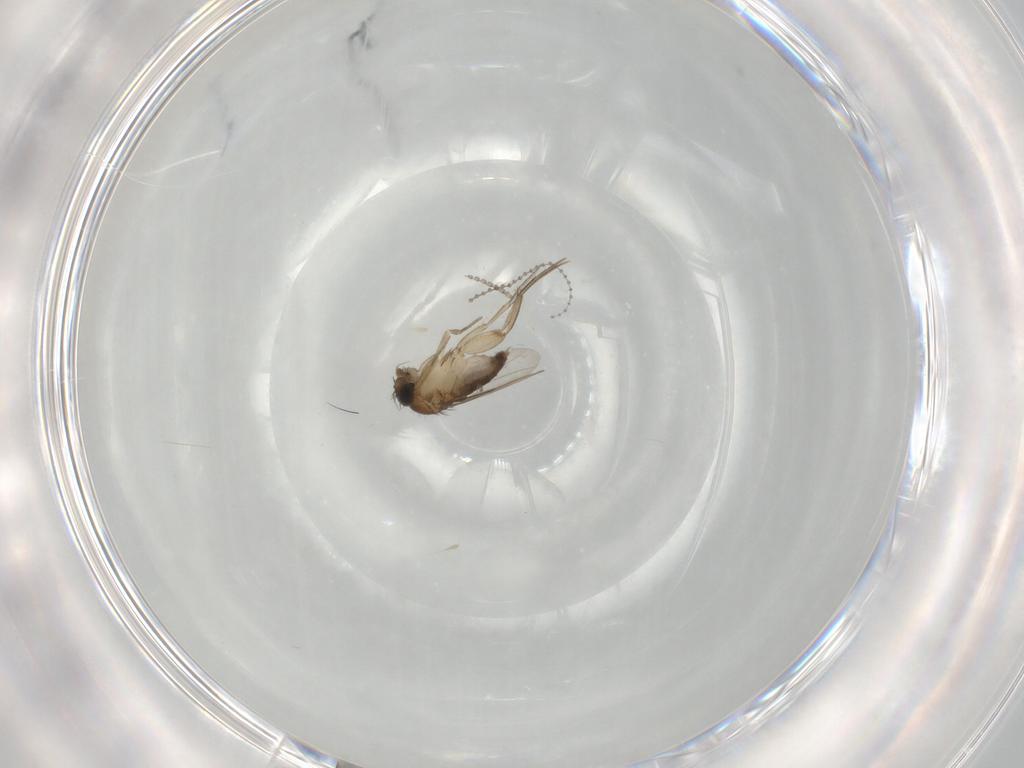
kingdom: Animalia
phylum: Arthropoda
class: Insecta
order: Diptera
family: Phoridae
